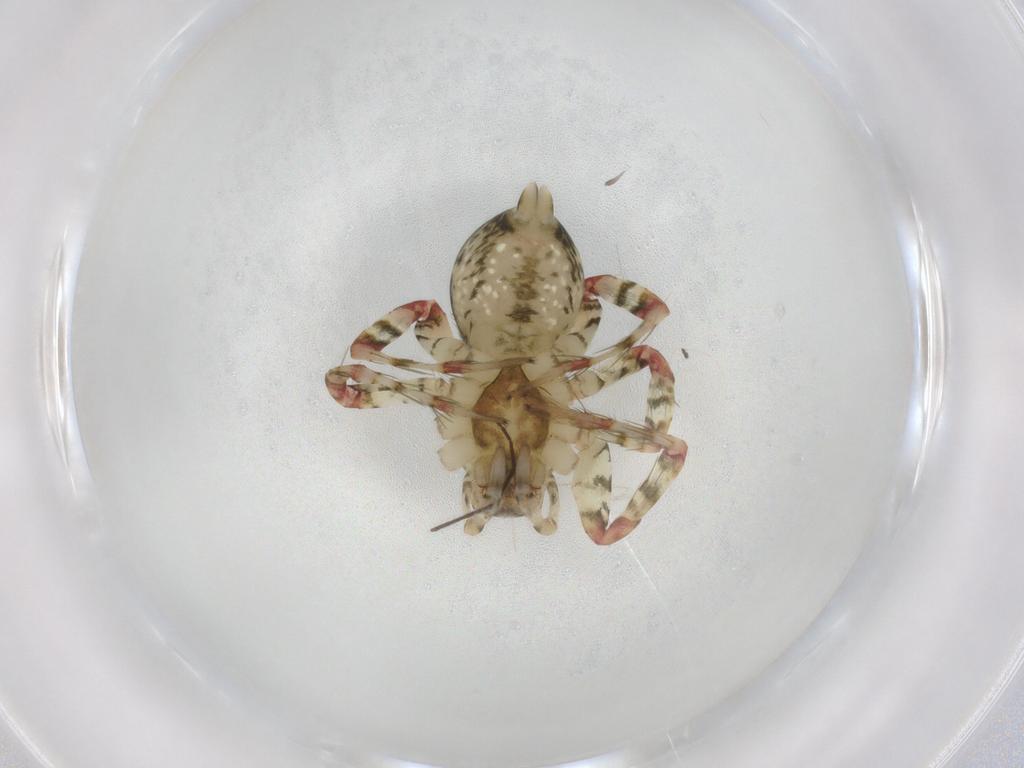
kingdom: Animalia
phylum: Arthropoda
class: Arachnida
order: Araneae
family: Amaurobiidae
